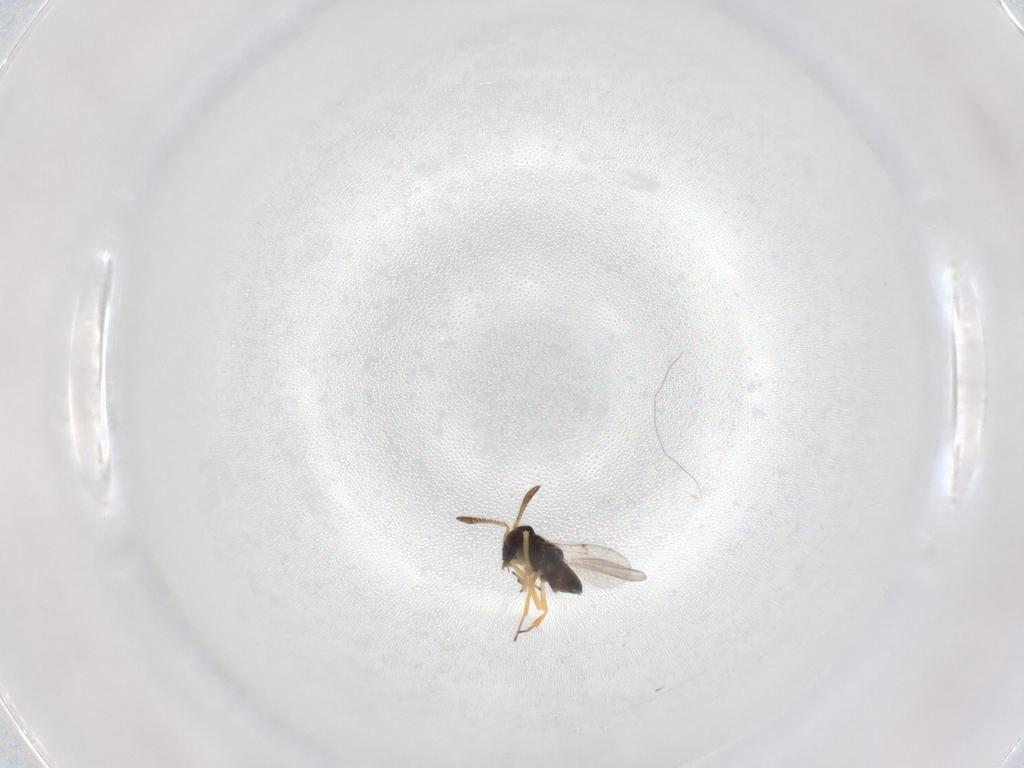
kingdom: Animalia
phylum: Arthropoda
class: Insecta
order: Hymenoptera
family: Encyrtidae
